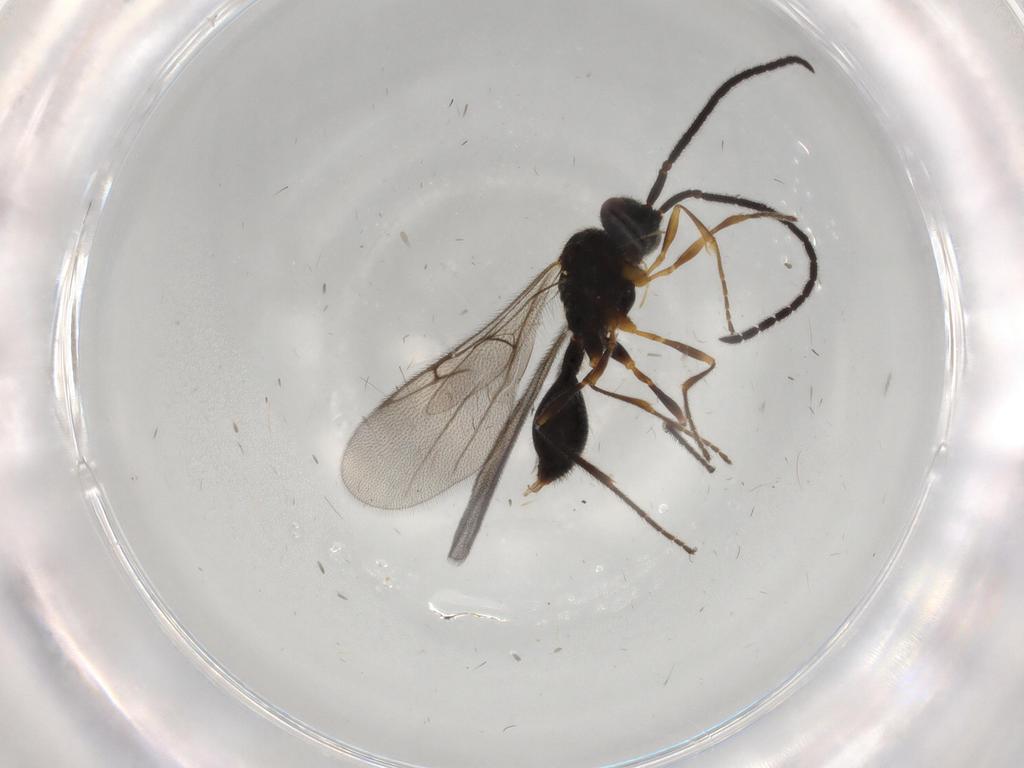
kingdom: Animalia
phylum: Arthropoda
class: Insecta
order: Hymenoptera
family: Diapriidae
